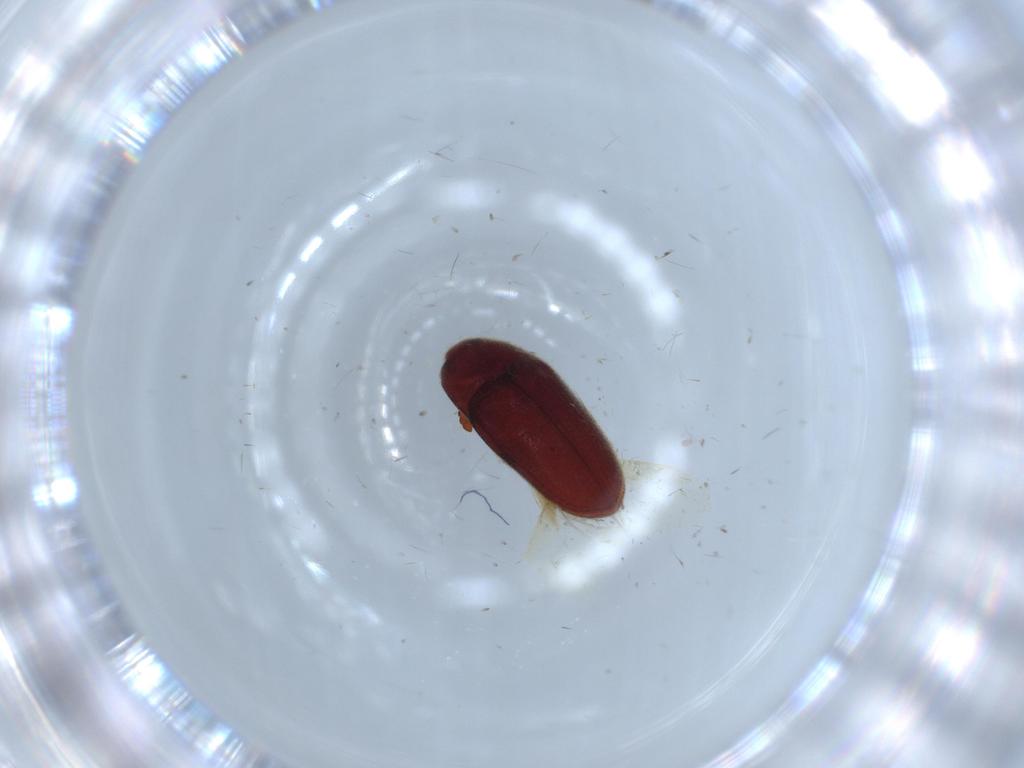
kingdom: Animalia
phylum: Arthropoda
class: Insecta
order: Coleoptera
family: Throscidae
